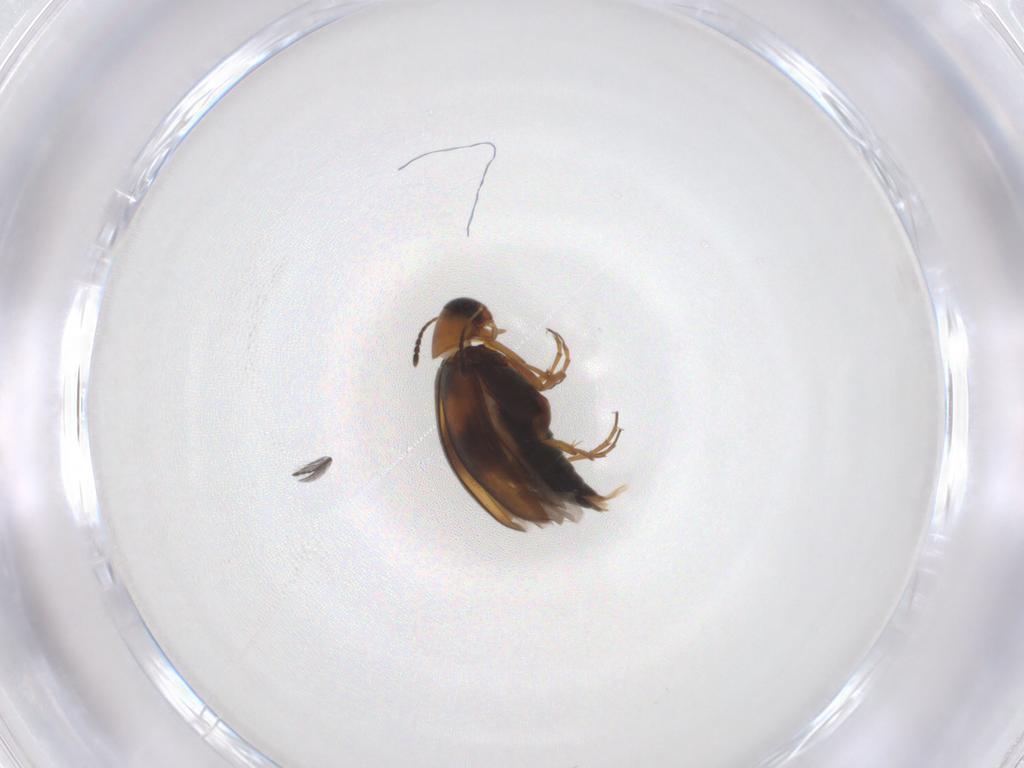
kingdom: Animalia
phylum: Arthropoda
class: Insecta
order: Coleoptera
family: Scraptiidae
